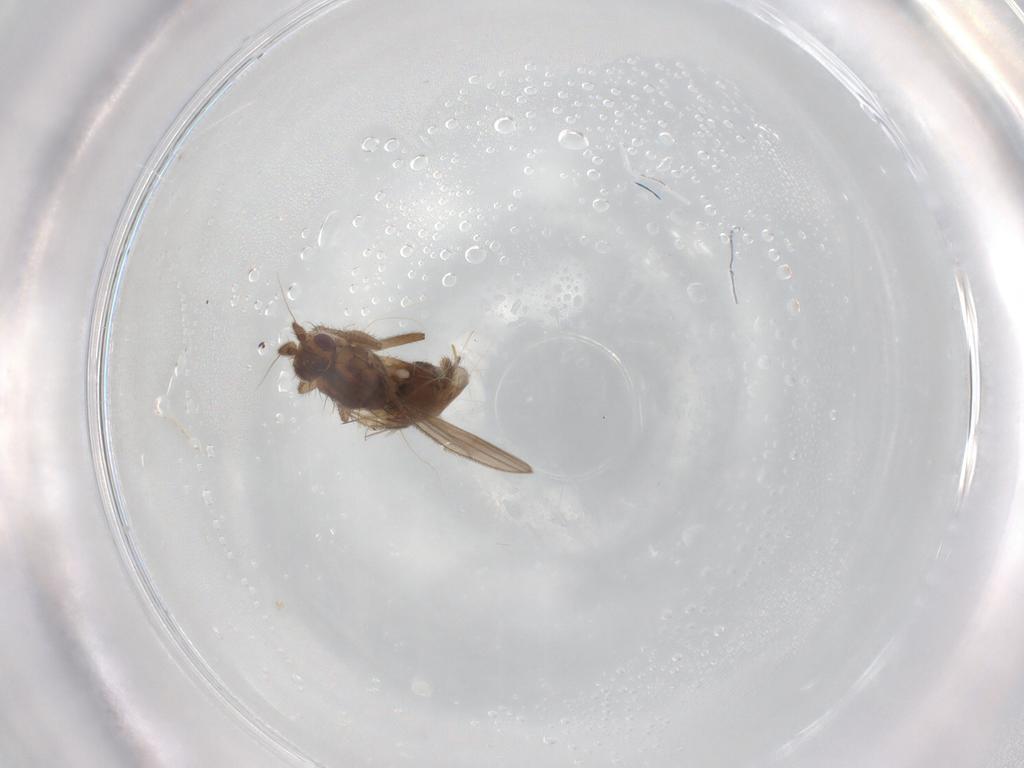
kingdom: Animalia
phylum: Arthropoda
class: Insecta
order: Diptera
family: Sphaeroceridae
